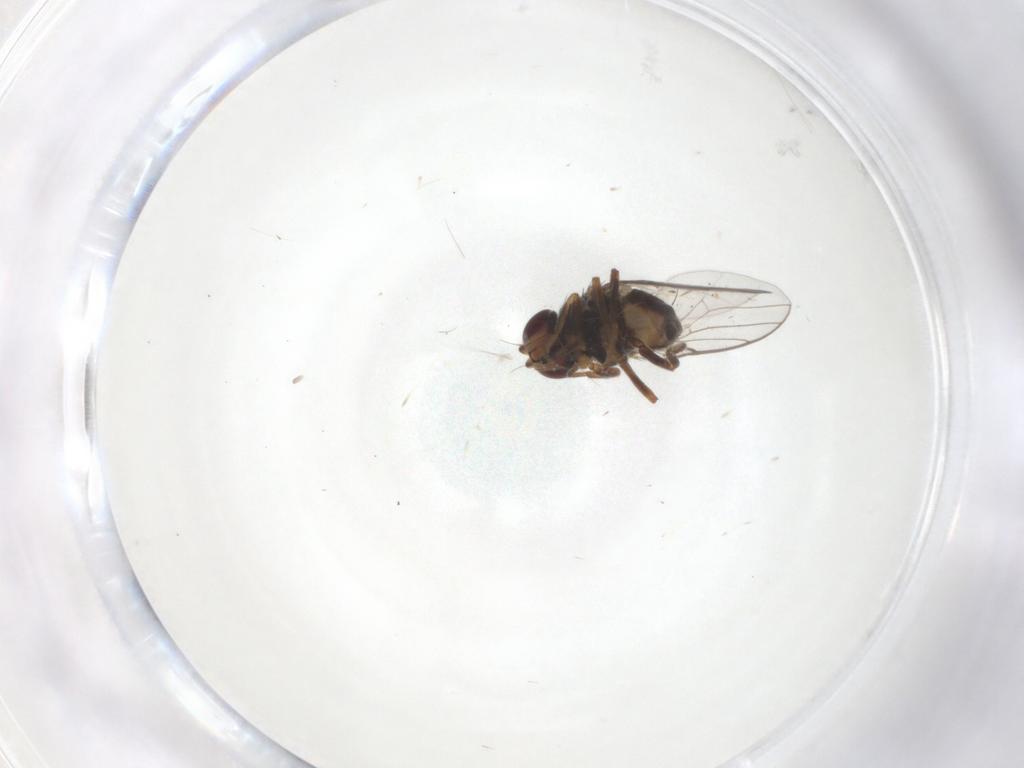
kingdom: Animalia
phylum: Arthropoda
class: Insecta
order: Diptera
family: Chloropidae
